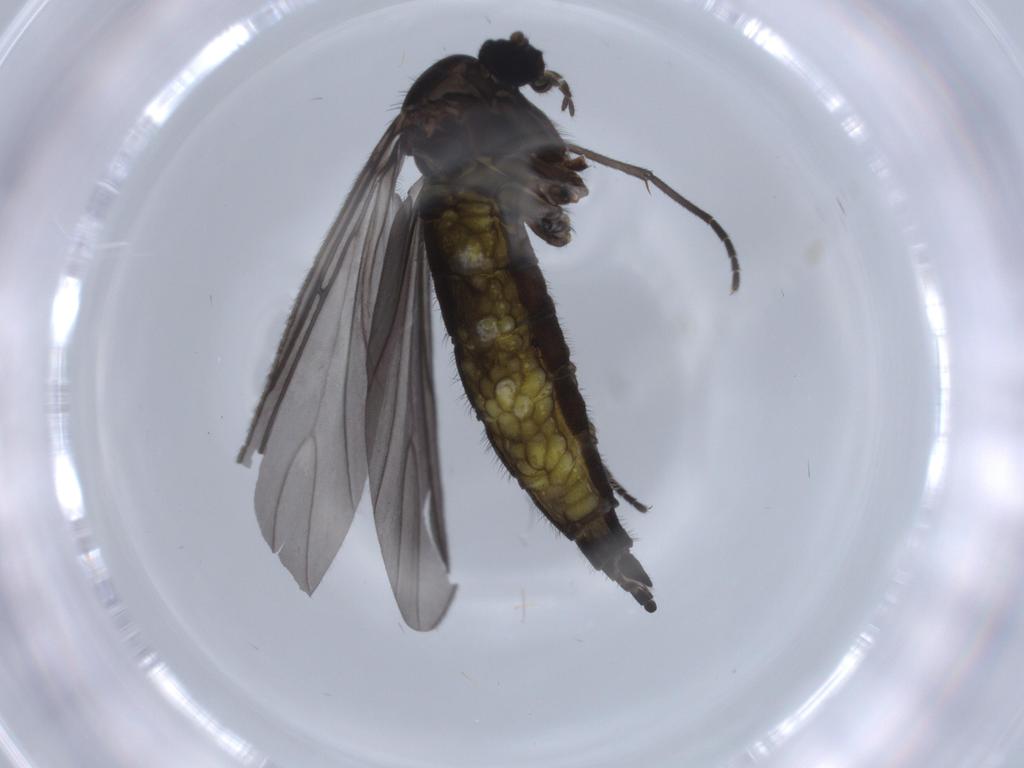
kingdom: Animalia
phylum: Arthropoda
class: Insecta
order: Diptera
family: Sciaridae
